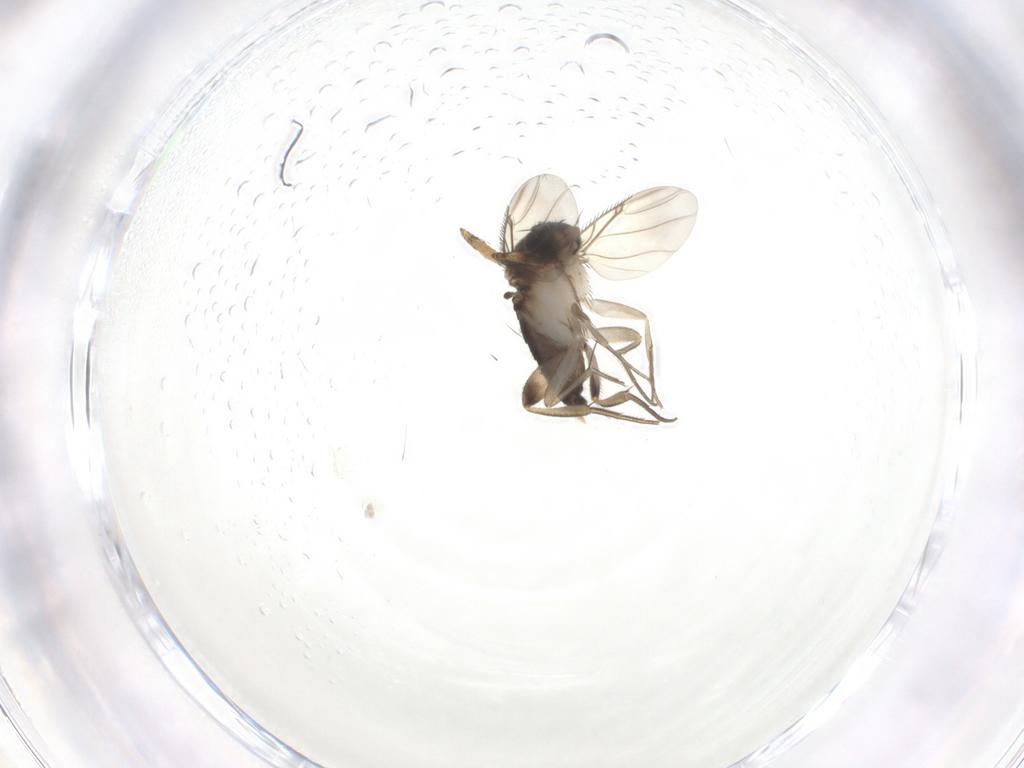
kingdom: Animalia
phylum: Arthropoda
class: Insecta
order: Diptera
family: Phoridae
